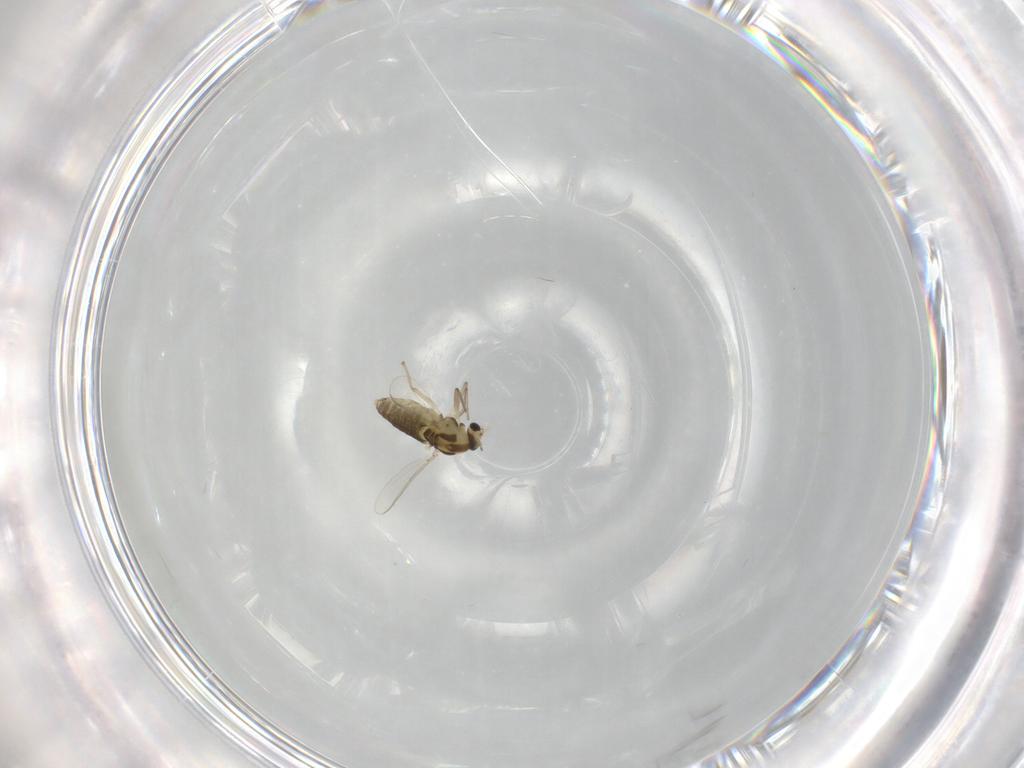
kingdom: Animalia
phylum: Arthropoda
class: Insecta
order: Diptera
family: Chironomidae
